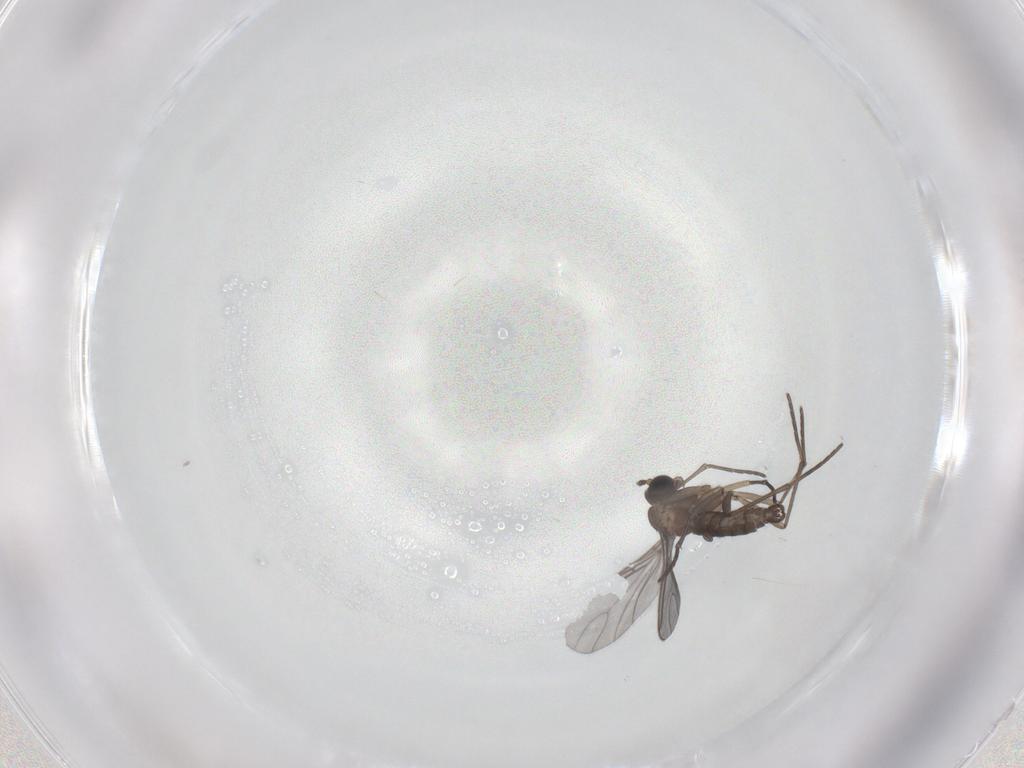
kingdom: Animalia
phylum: Arthropoda
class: Insecta
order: Diptera
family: Sciaridae
